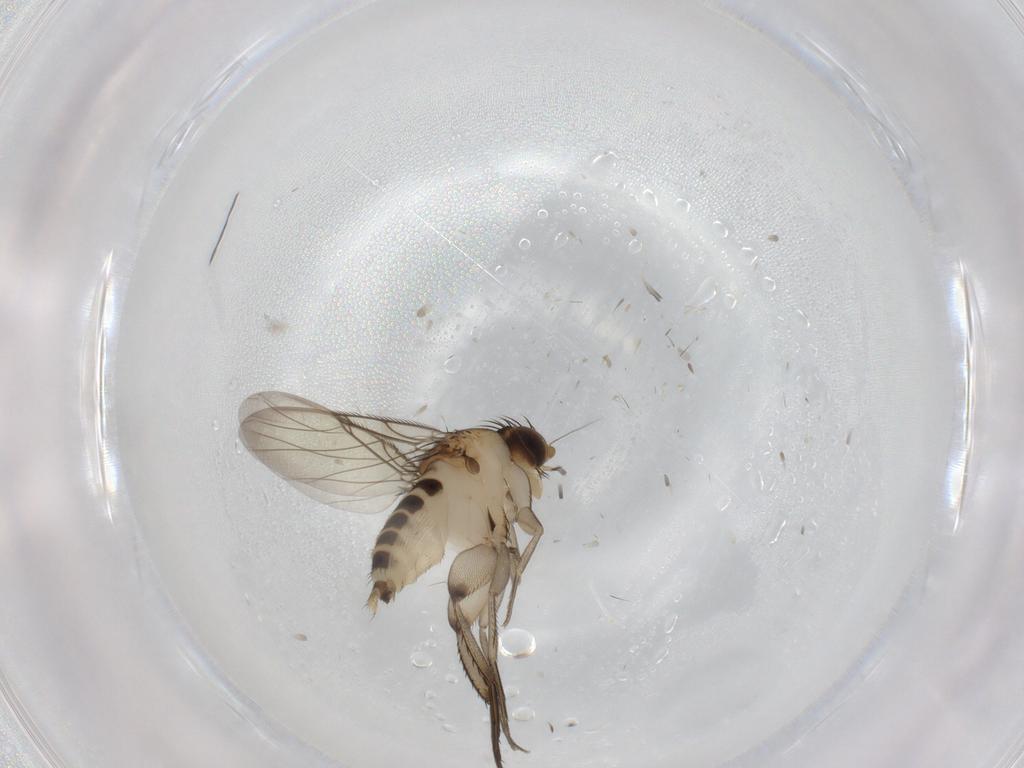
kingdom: Animalia
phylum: Arthropoda
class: Insecta
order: Diptera
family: Phoridae
